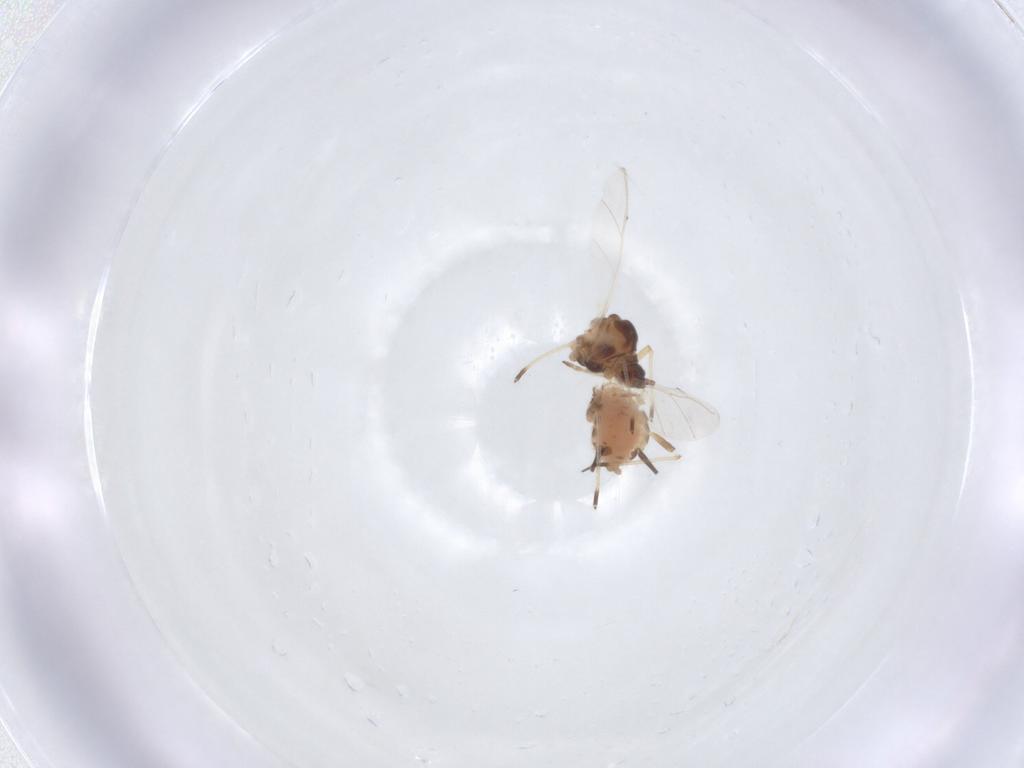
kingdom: Animalia
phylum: Arthropoda
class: Insecta
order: Hemiptera
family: Aphididae
